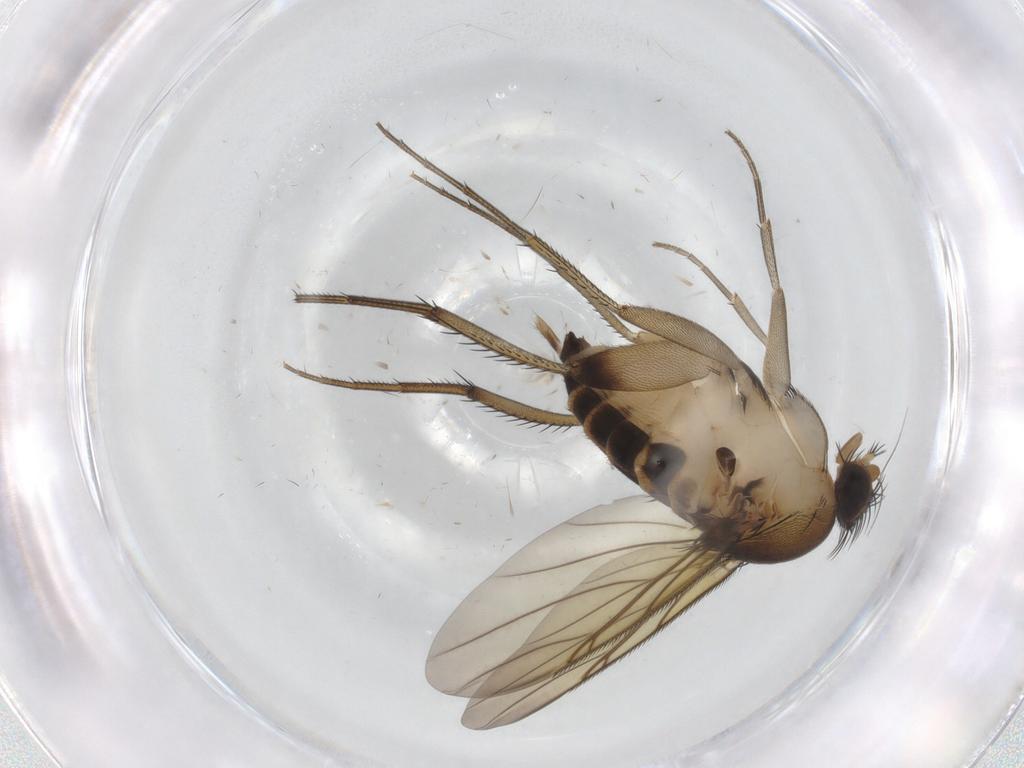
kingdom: Animalia
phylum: Arthropoda
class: Insecta
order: Diptera
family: Phoridae
